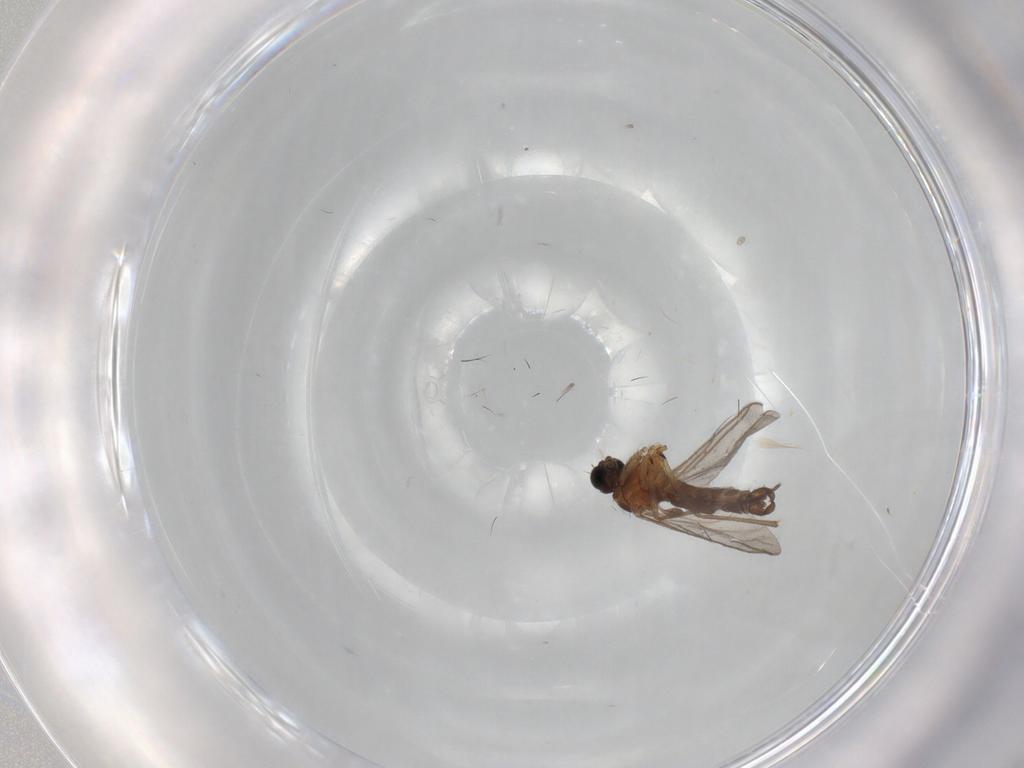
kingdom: Animalia
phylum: Arthropoda
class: Insecta
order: Diptera
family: Sciaridae
